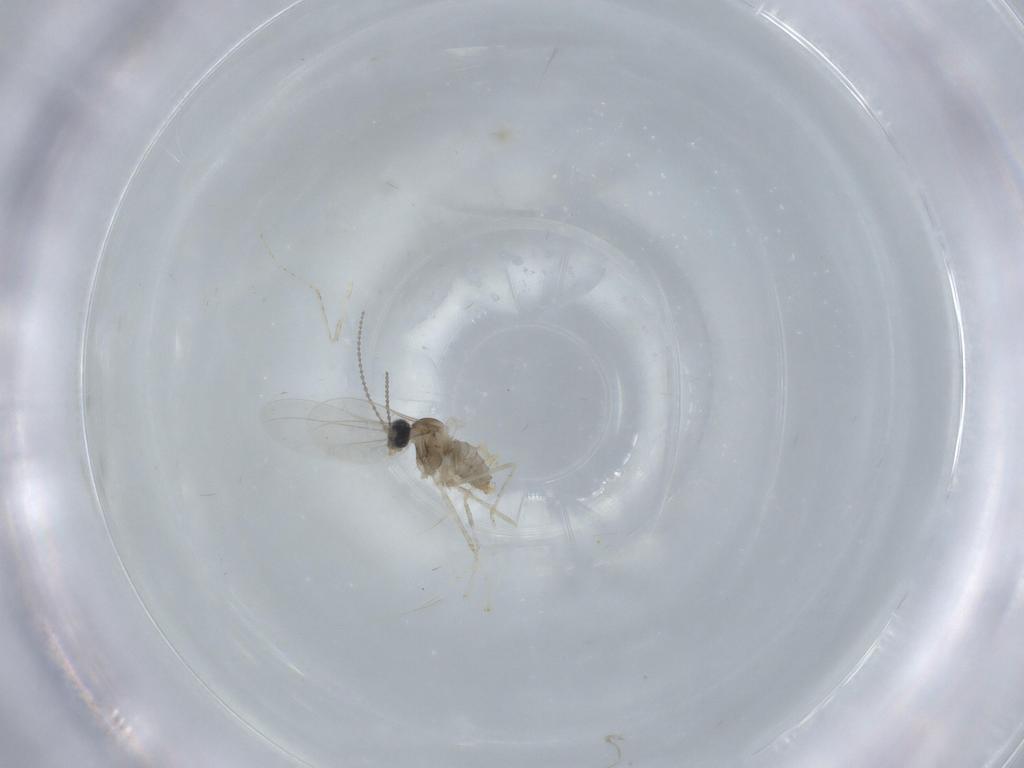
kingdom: Animalia
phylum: Arthropoda
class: Insecta
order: Diptera
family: Cecidomyiidae
